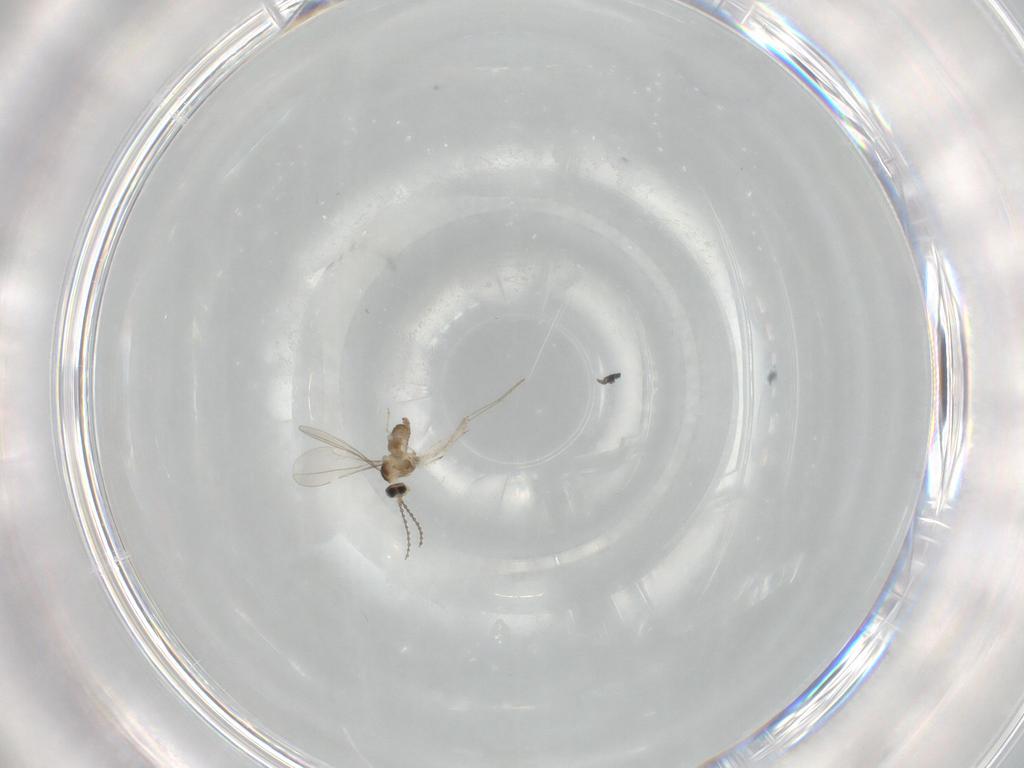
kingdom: Animalia
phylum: Arthropoda
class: Insecta
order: Diptera
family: Cecidomyiidae
